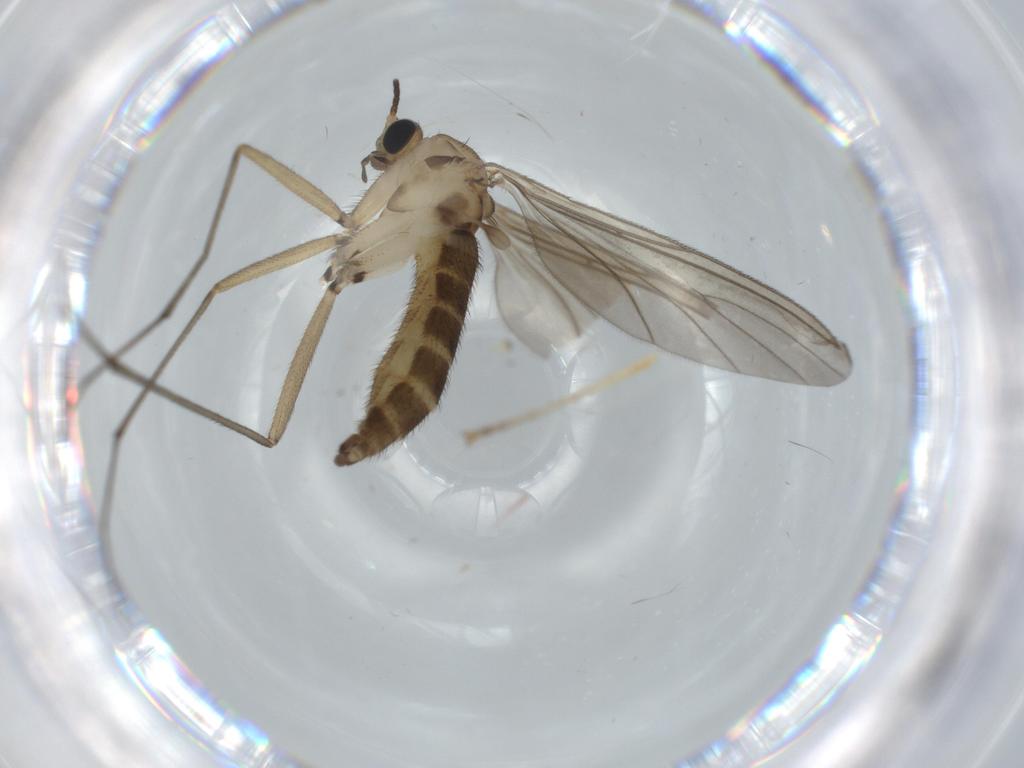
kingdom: Animalia
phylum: Arthropoda
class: Insecta
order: Diptera
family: Sciaridae
